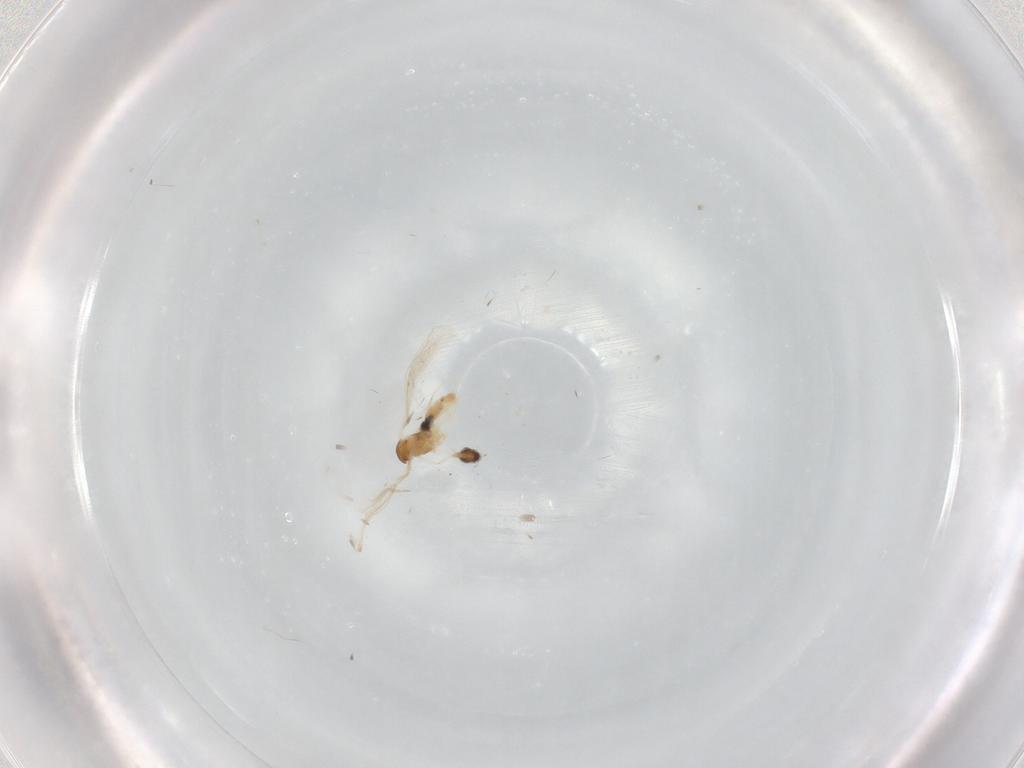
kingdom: Animalia
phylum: Arthropoda
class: Insecta
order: Diptera
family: Cecidomyiidae
